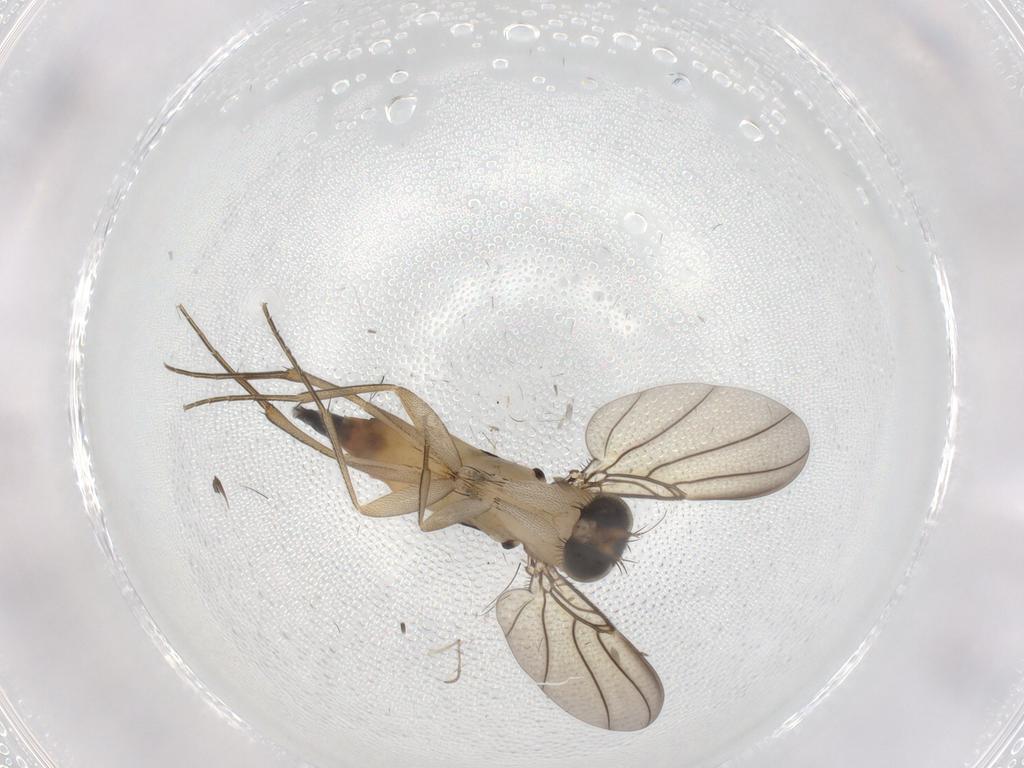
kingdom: Animalia
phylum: Arthropoda
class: Insecta
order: Diptera
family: Phoridae
